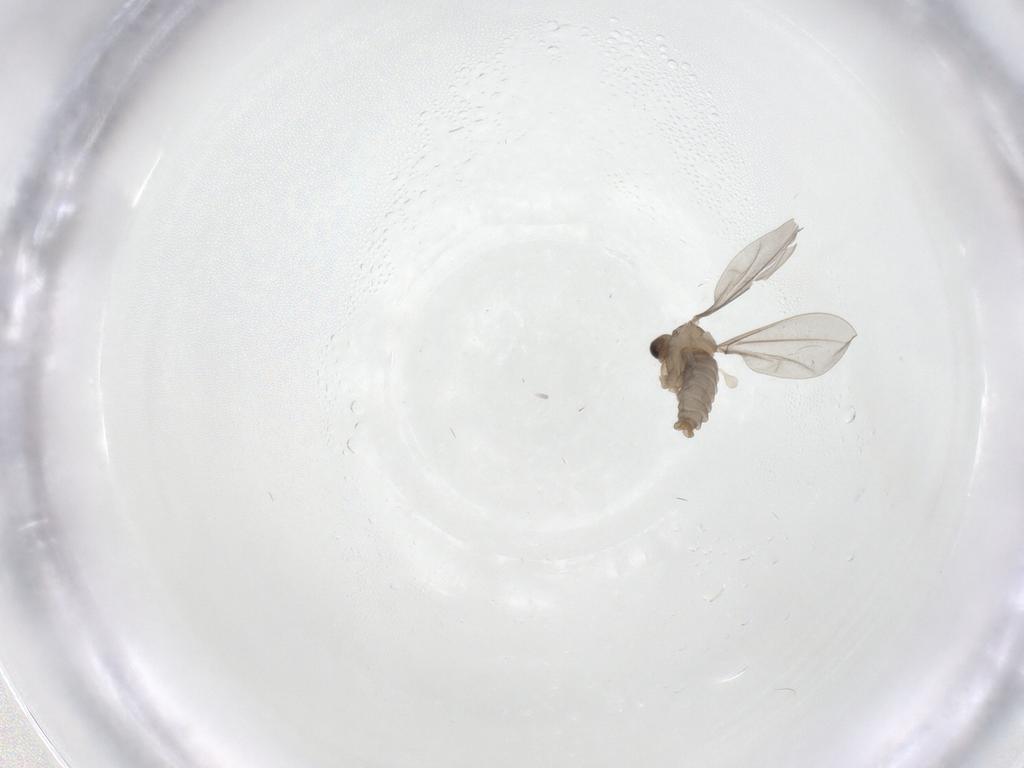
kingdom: Animalia
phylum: Arthropoda
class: Insecta
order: Diptera
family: Cecidomyiidae
